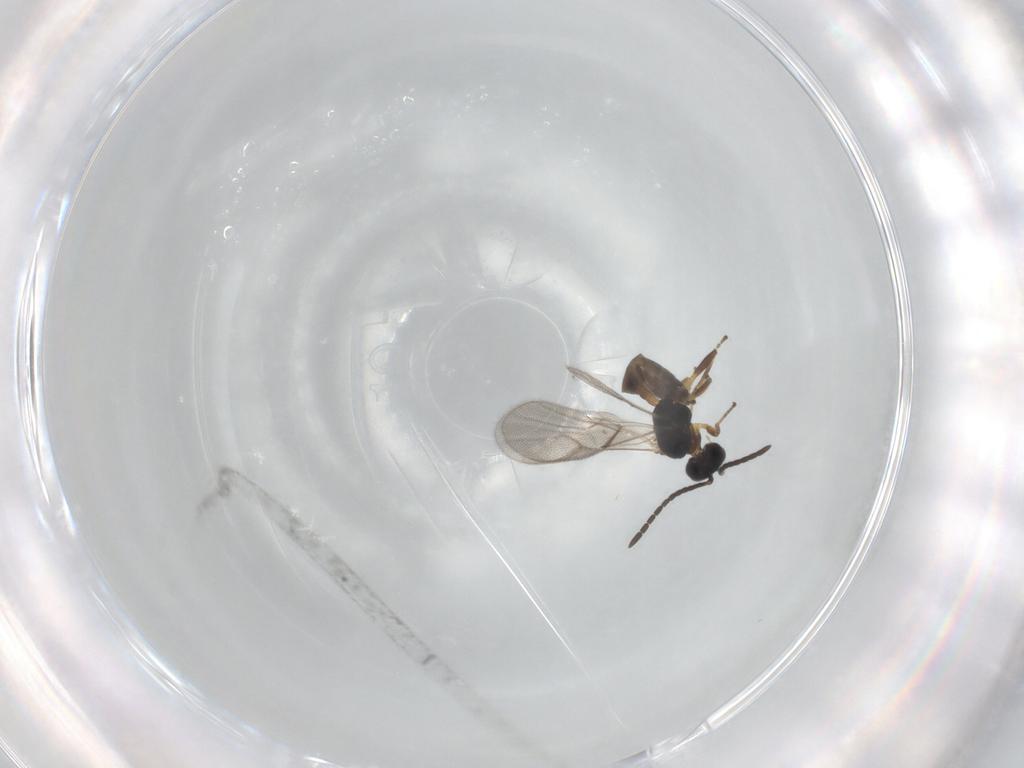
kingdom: Animalia
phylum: Arthropoda
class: Insecta
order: Hymenoptera
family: Braconidae
